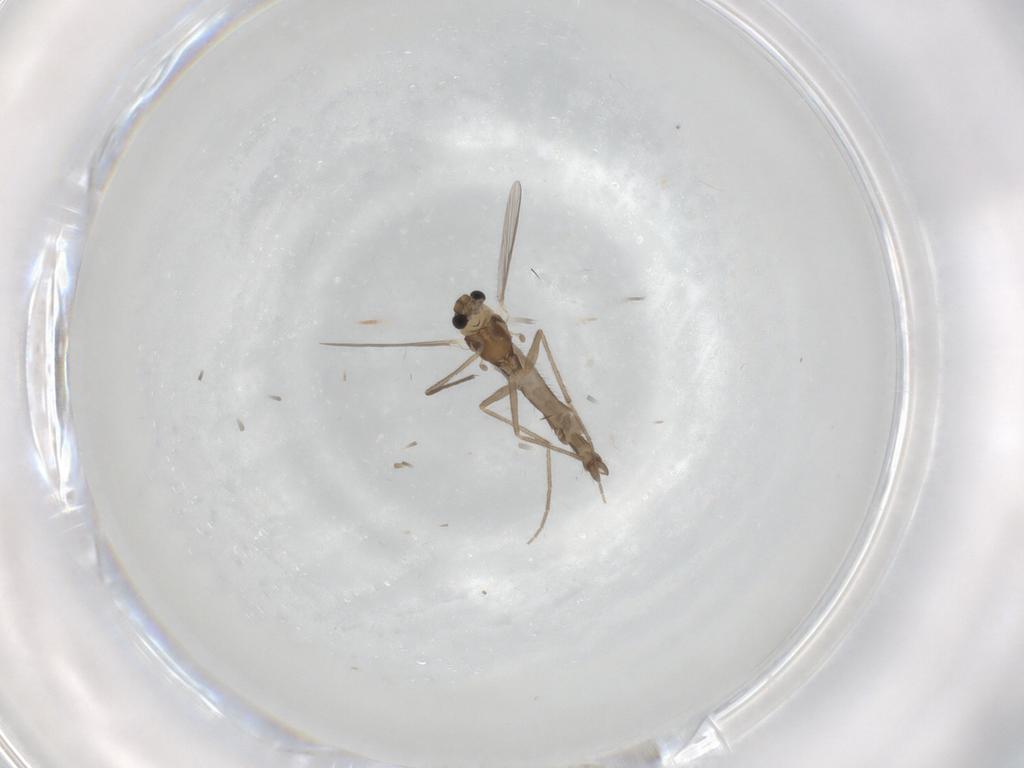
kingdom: Animalia
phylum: Arthropoda
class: Insecta
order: Diptera
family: Chironomidae
